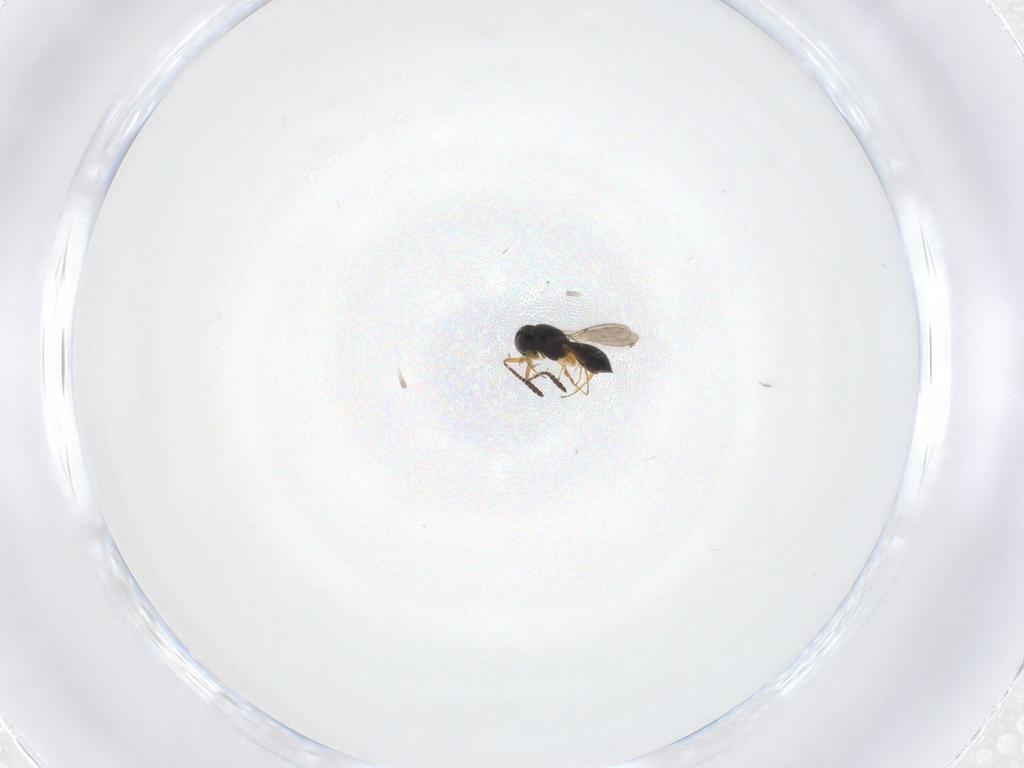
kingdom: Animalia
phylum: Arthropoda
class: Insecta
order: Hymenoptera
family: Scelionidae
